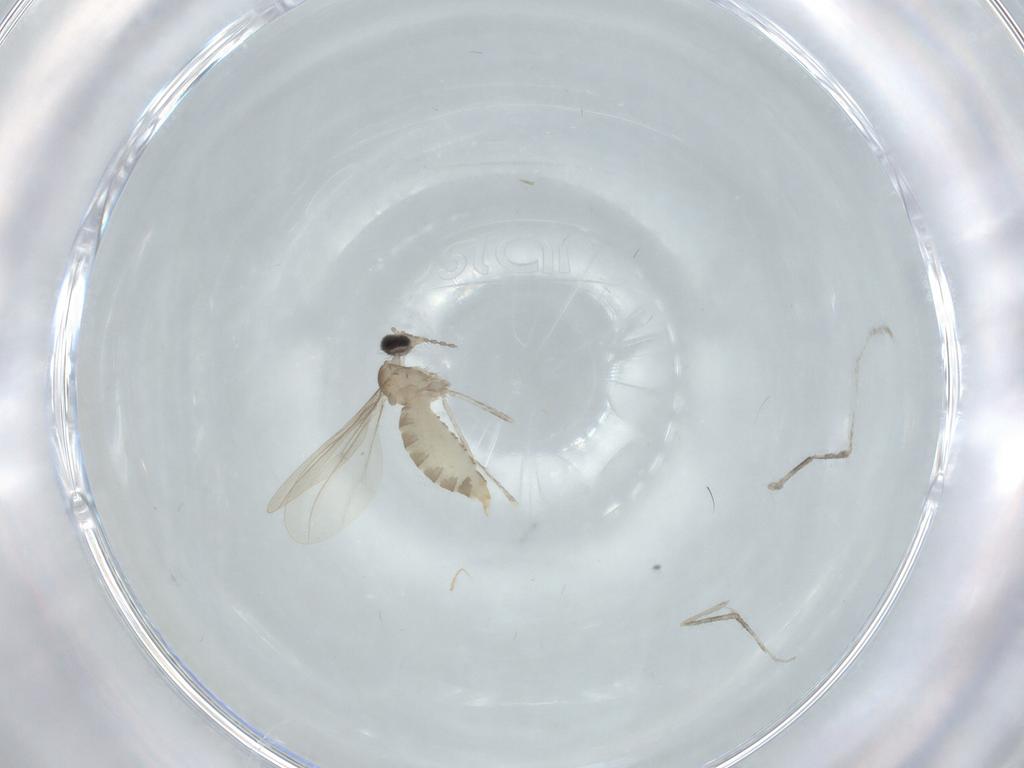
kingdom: Animalia
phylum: Arthropoda
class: Insecta
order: Diptera
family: Cecidomyiidae
